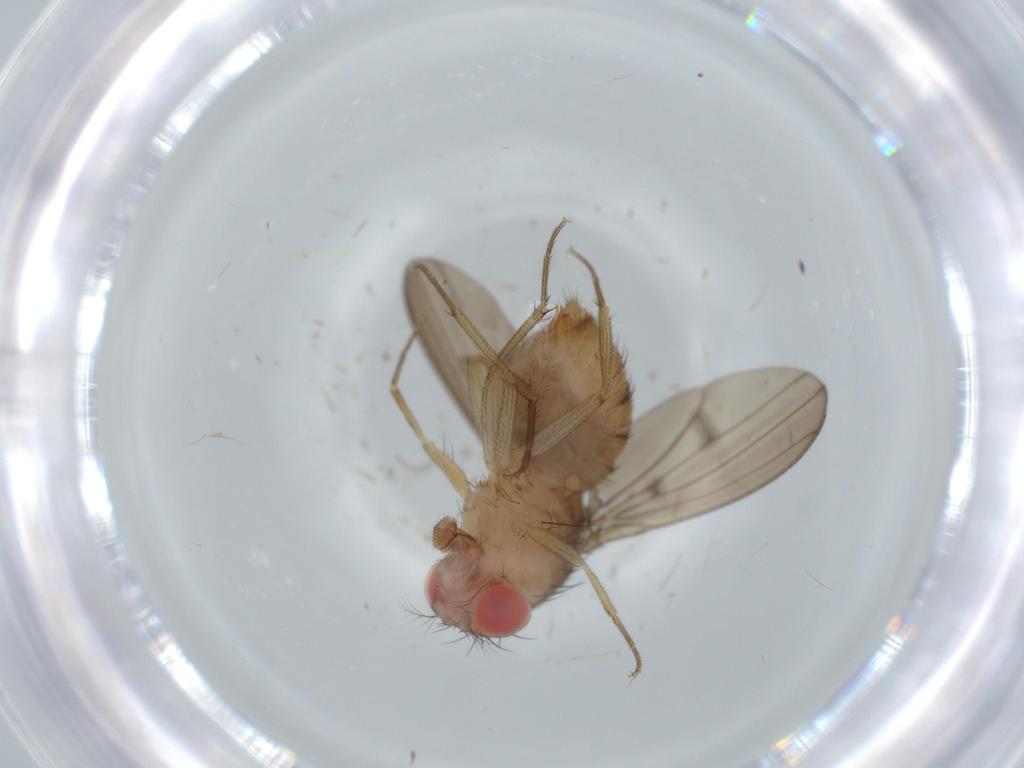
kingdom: Animalia
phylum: Arthropoda
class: Insecta
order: Diptera
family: Drosophilidae
